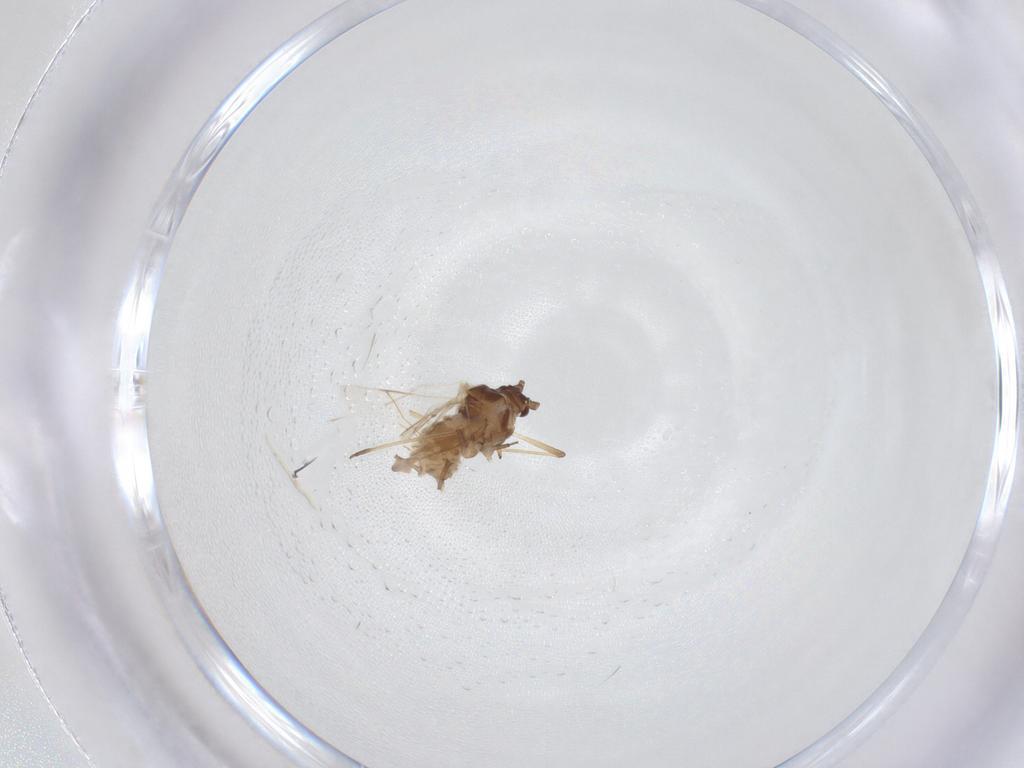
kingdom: Animalia
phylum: Arthropoda
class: Insecta
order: Hemiptera
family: Aphididae
